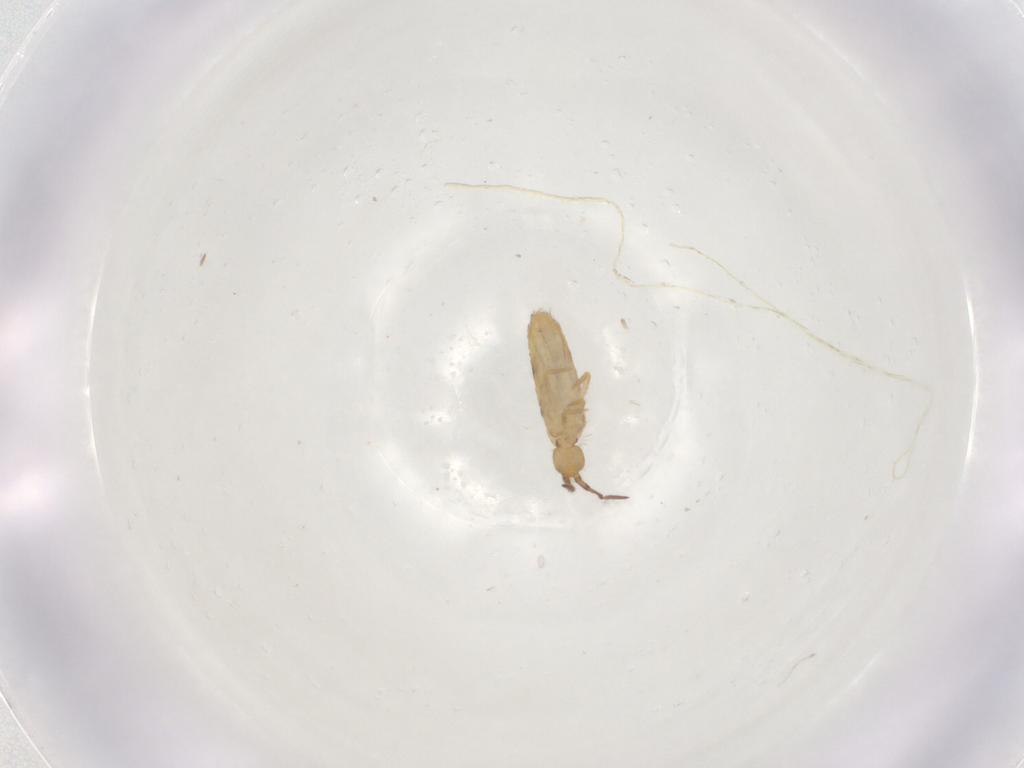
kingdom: Animalia
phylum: Arthropoda
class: Collembola
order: Entomobryomorpha
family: Entomobryidae
